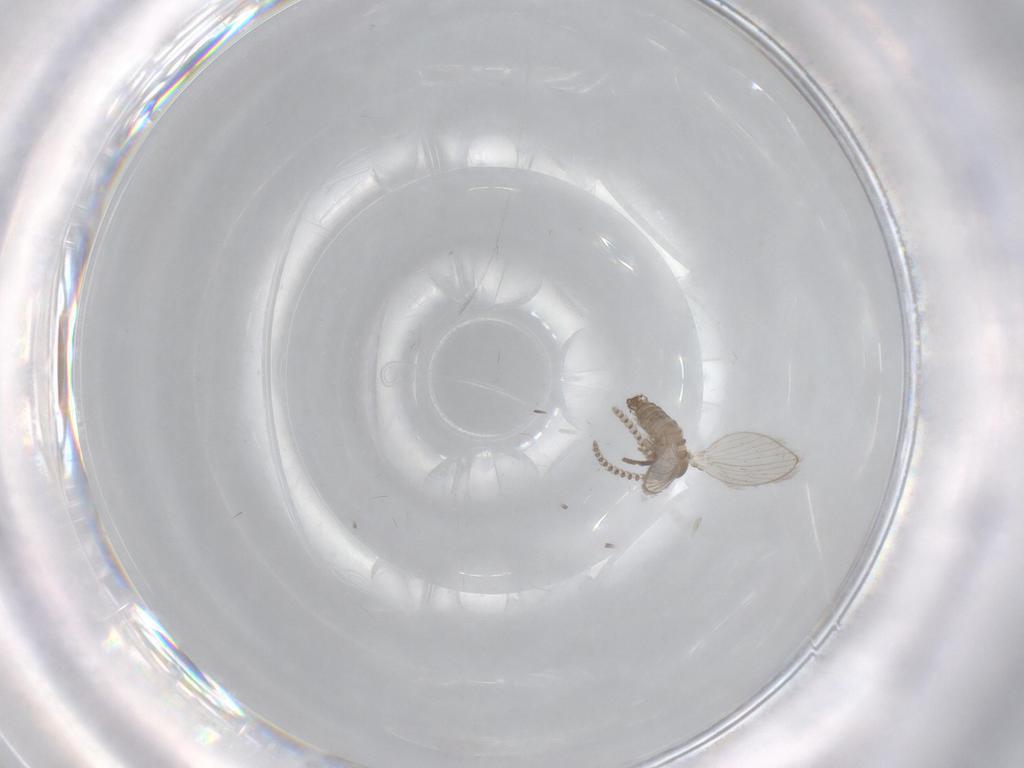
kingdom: Animalia
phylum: Arthropoda
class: Insecta
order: Diptera
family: Psychodidae
